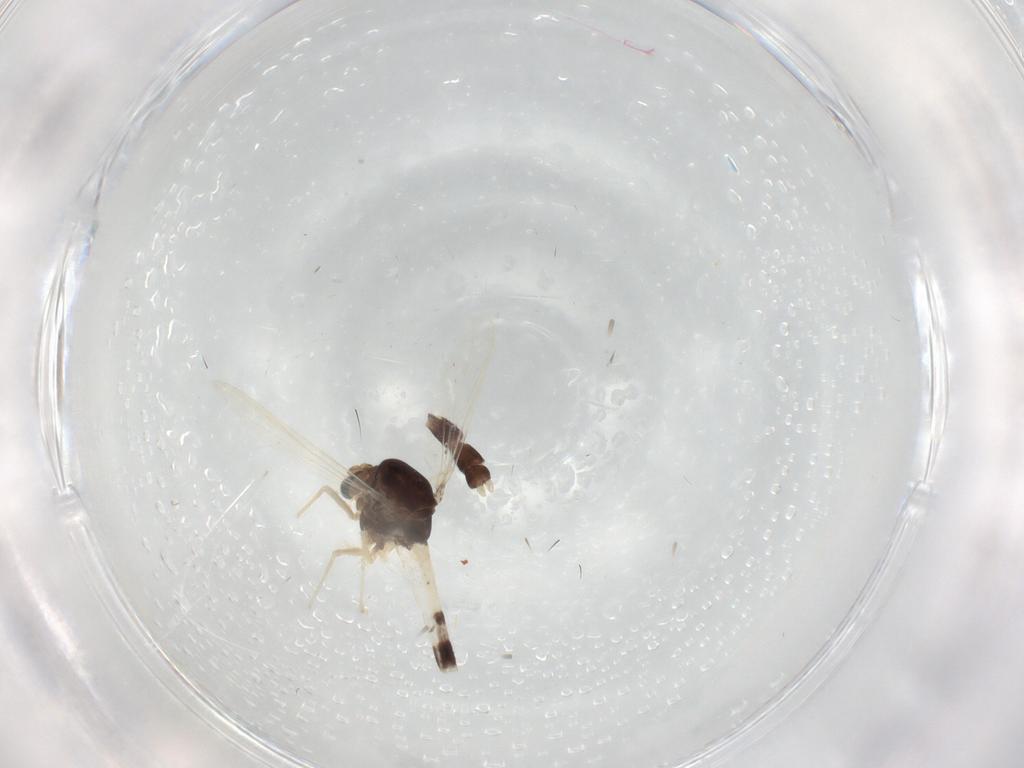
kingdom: Animalia
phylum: Arthropoda
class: Insecta
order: Diptera
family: Chironomidae
